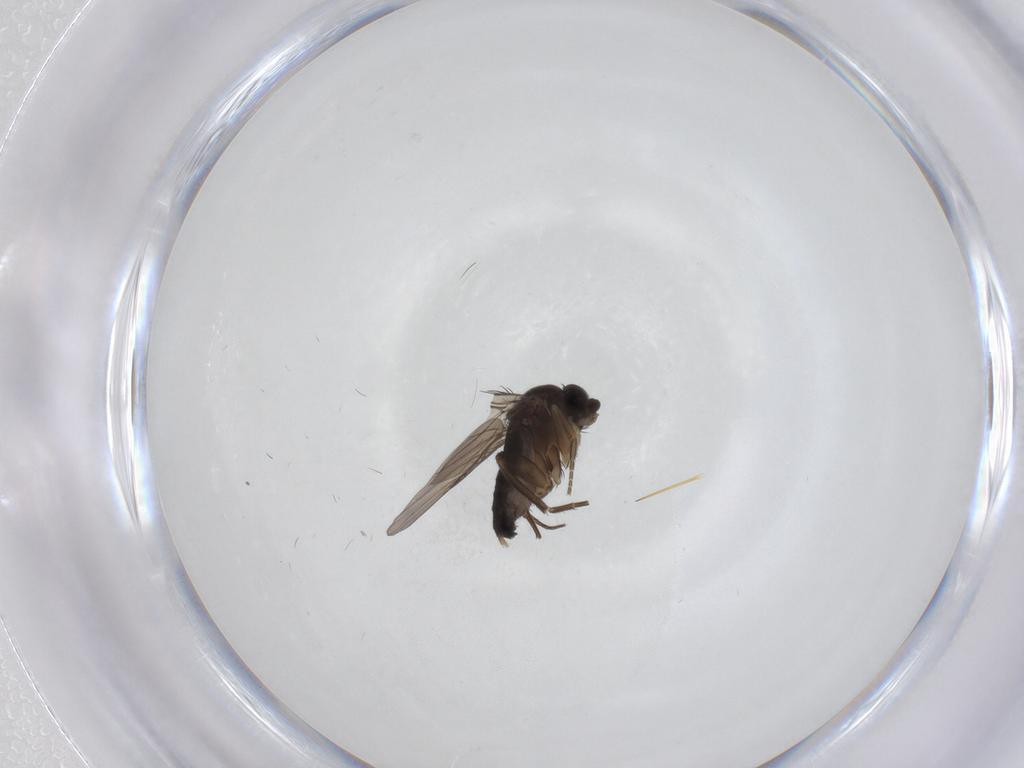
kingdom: Animalia
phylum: Arthropoda
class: Insecta
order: Diptera
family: Phoridae
